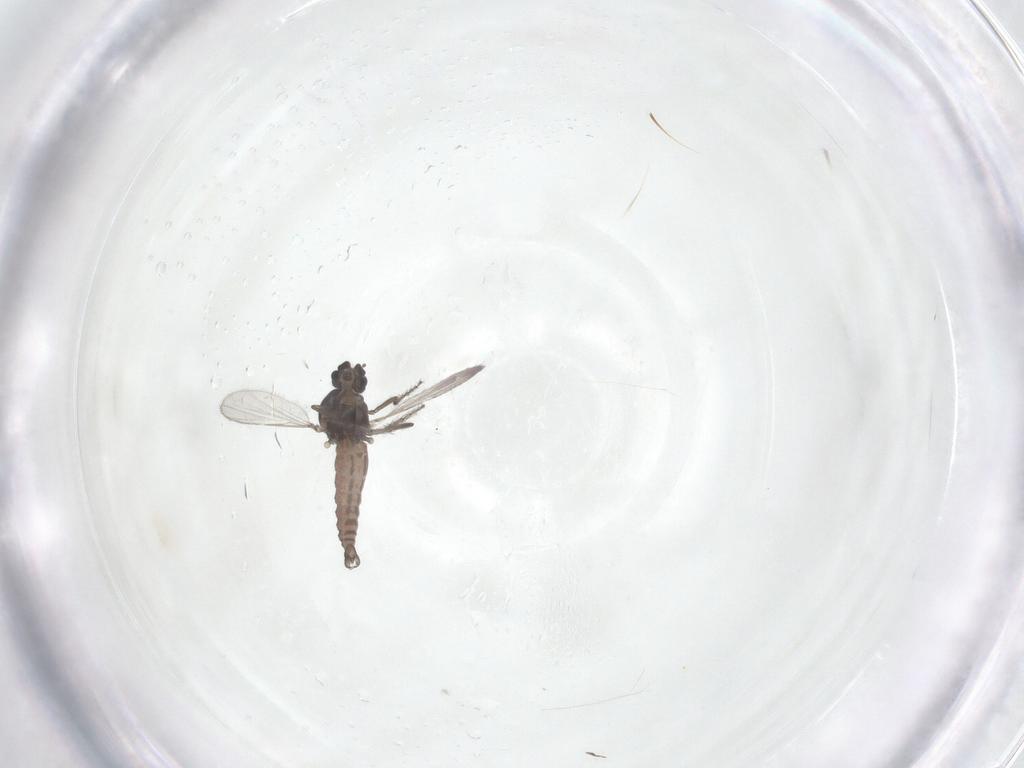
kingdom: Animalia
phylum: Arthropoda
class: Insecta
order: Diptera
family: Ceratopogonidae
